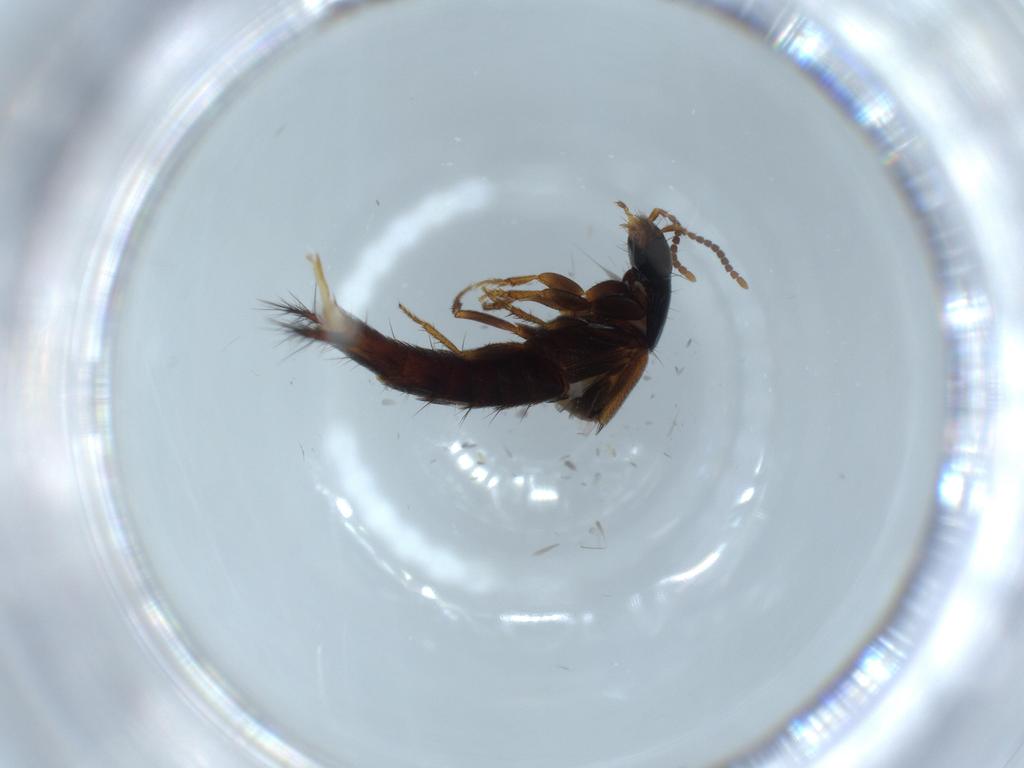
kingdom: Animalia
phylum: Arthropoda
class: Insecta
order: Coleoptera
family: Staphylinidae
